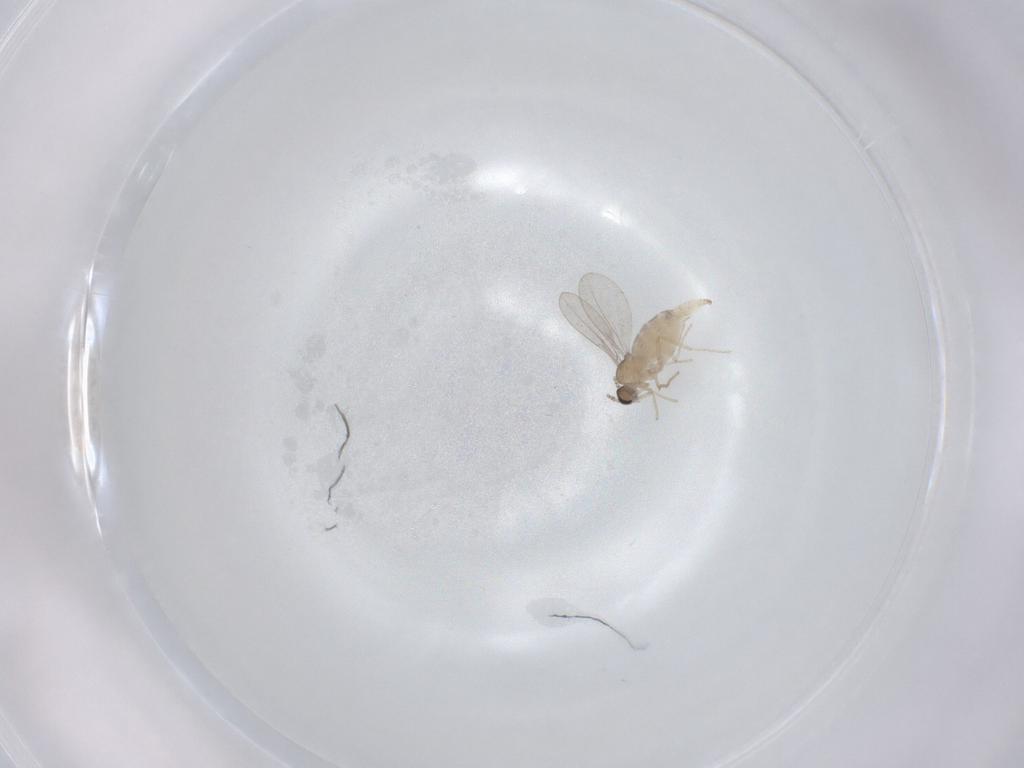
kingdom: Animalia
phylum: Arthropoda
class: Insecta
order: Diptera
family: Cecidomyiidae
